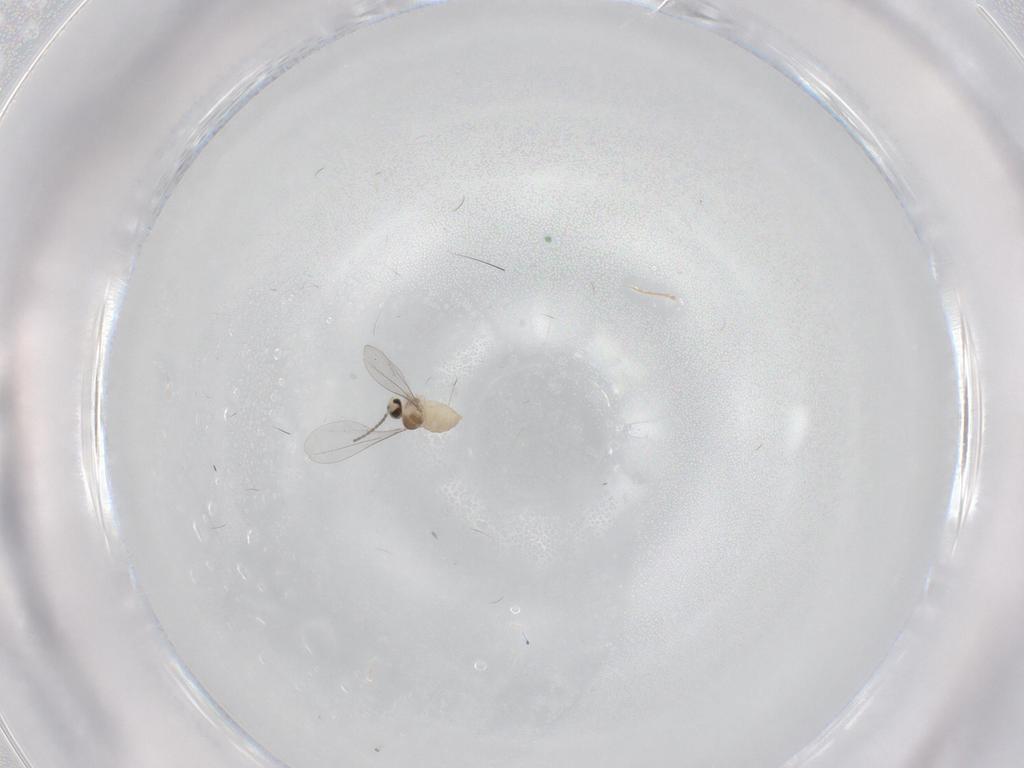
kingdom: Animalia
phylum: Arthropoda
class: Insecta
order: Diptera
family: Cecidomyiidae
